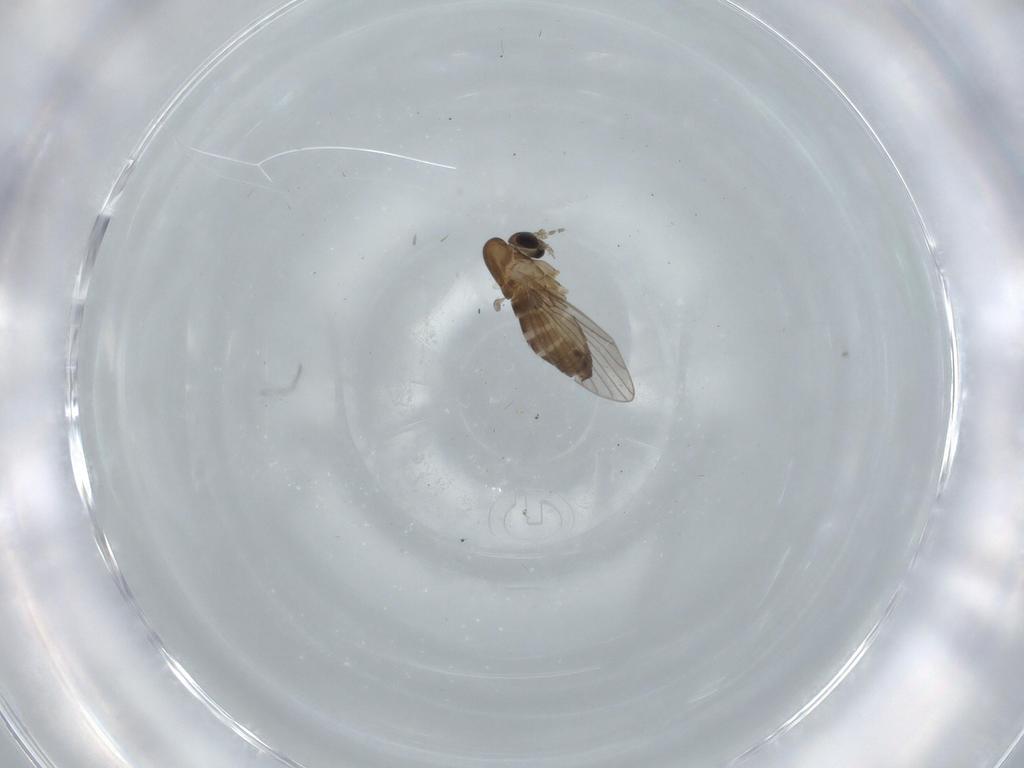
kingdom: Animalia
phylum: Arthropoda
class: Insecta
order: Diptera
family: Psychodidae
